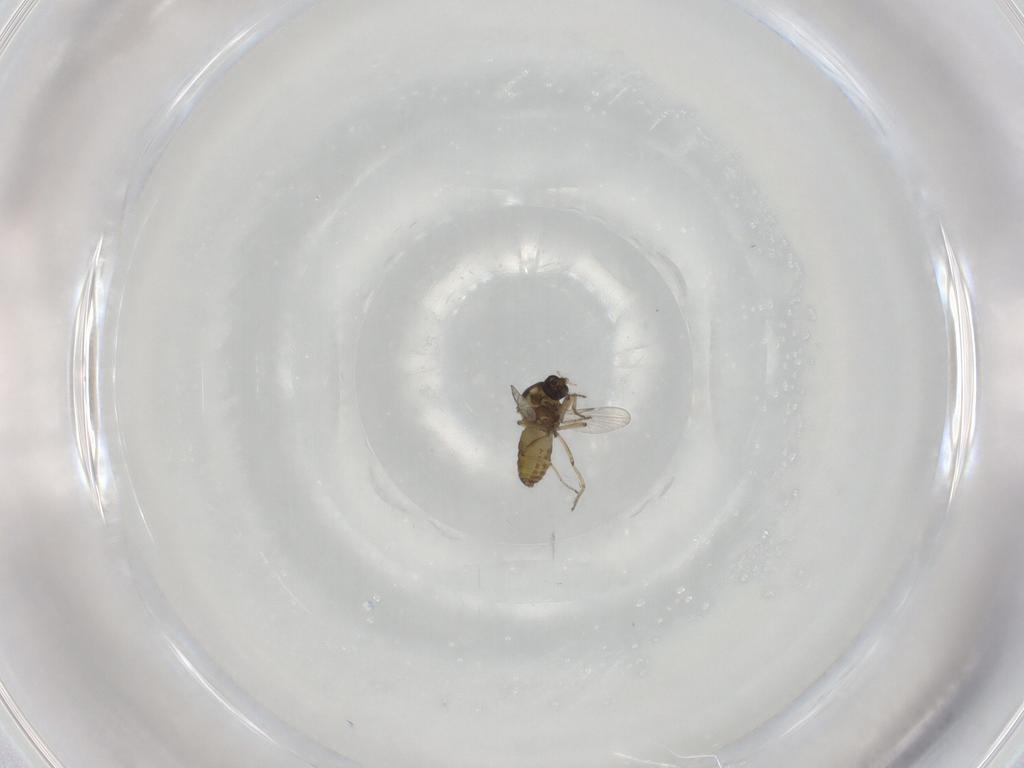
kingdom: Animalia
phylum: Arthropoda
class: Insecta
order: Diptera
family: Ceratopogonidae
